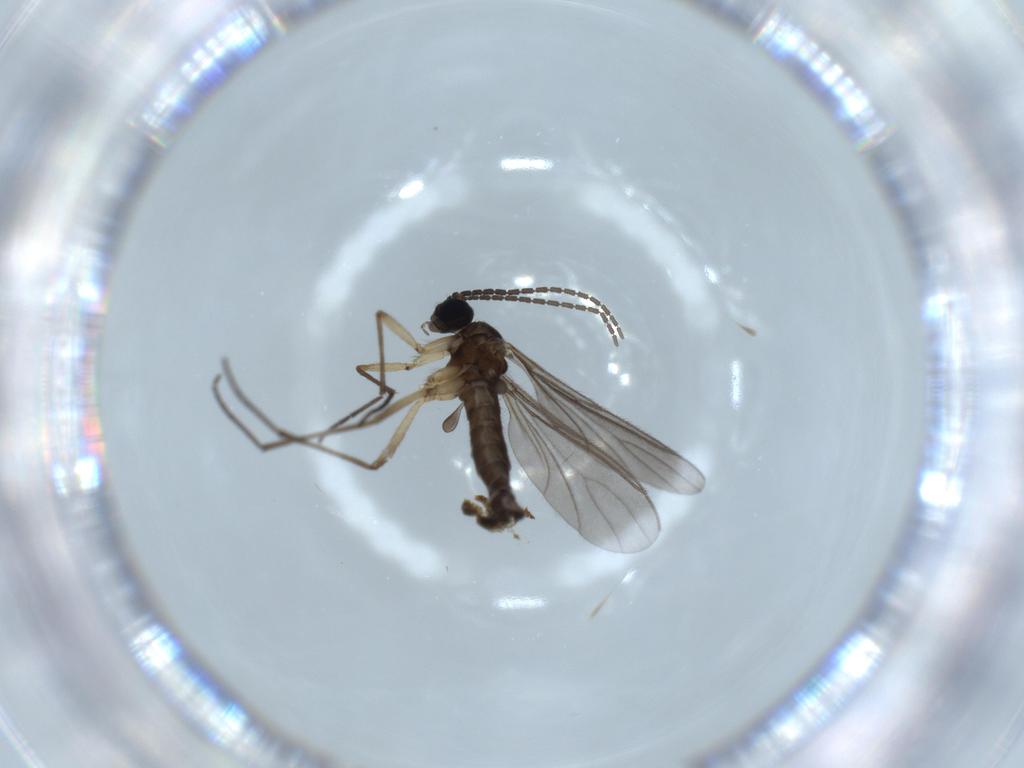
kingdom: Animalia
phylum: Arthropoda
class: Insecta
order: Diptera
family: Sciaridae
